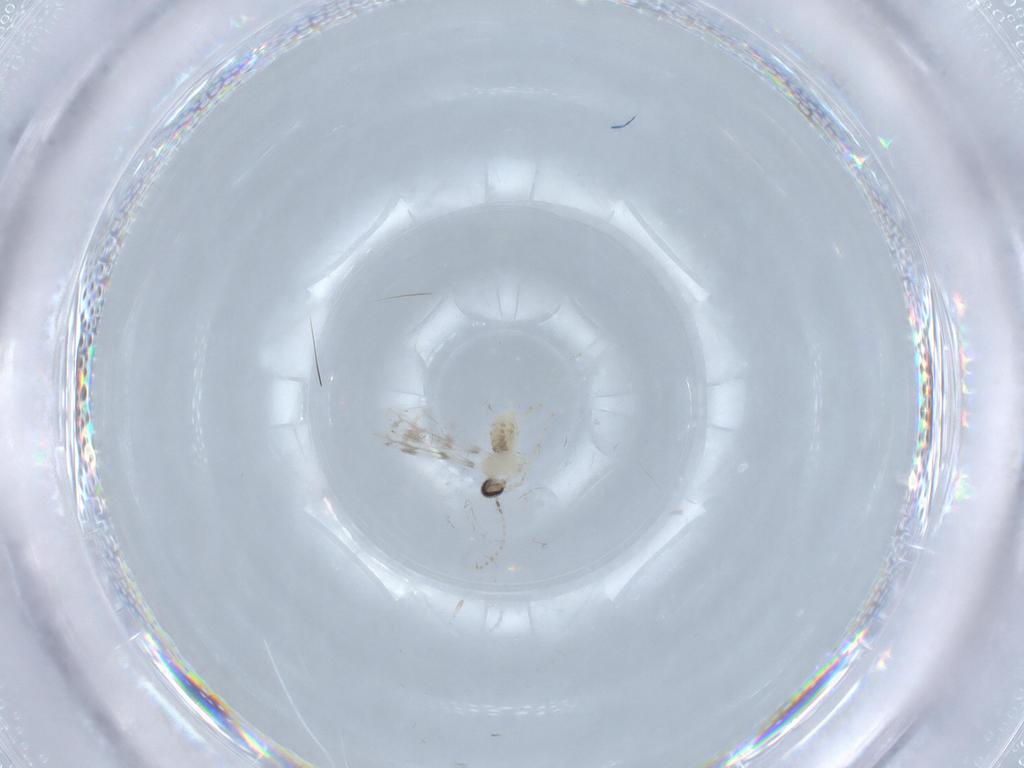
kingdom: Animalia
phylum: Arthropoda
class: Insecta
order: Diptera
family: Cecidomyiidae
